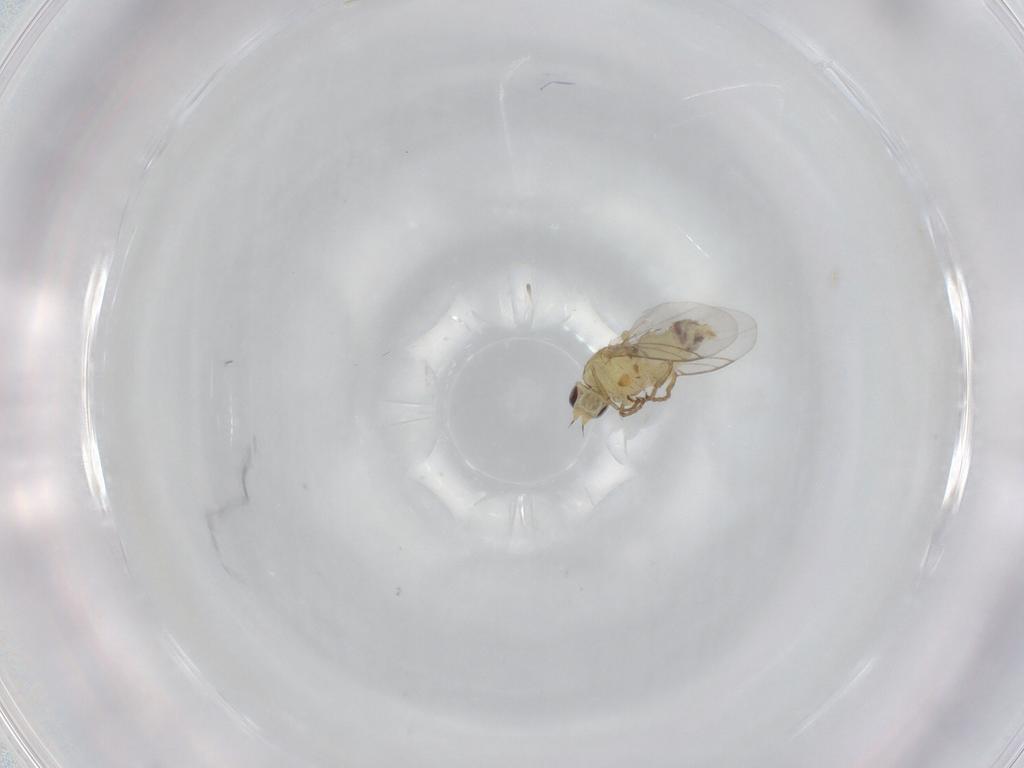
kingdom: Animalia
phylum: Arthropoda
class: Insecta
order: Diptera
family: Agromyzidae
